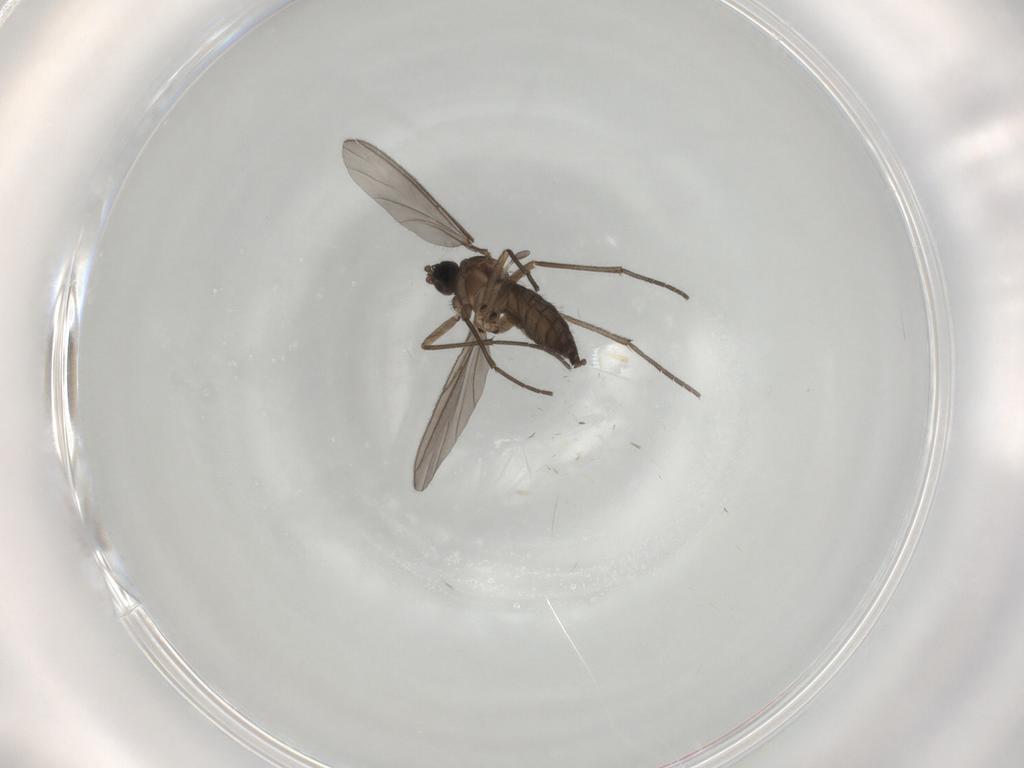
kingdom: Animalia
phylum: Arthropoda
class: Insecta
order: Diptera
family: Sciaridae
